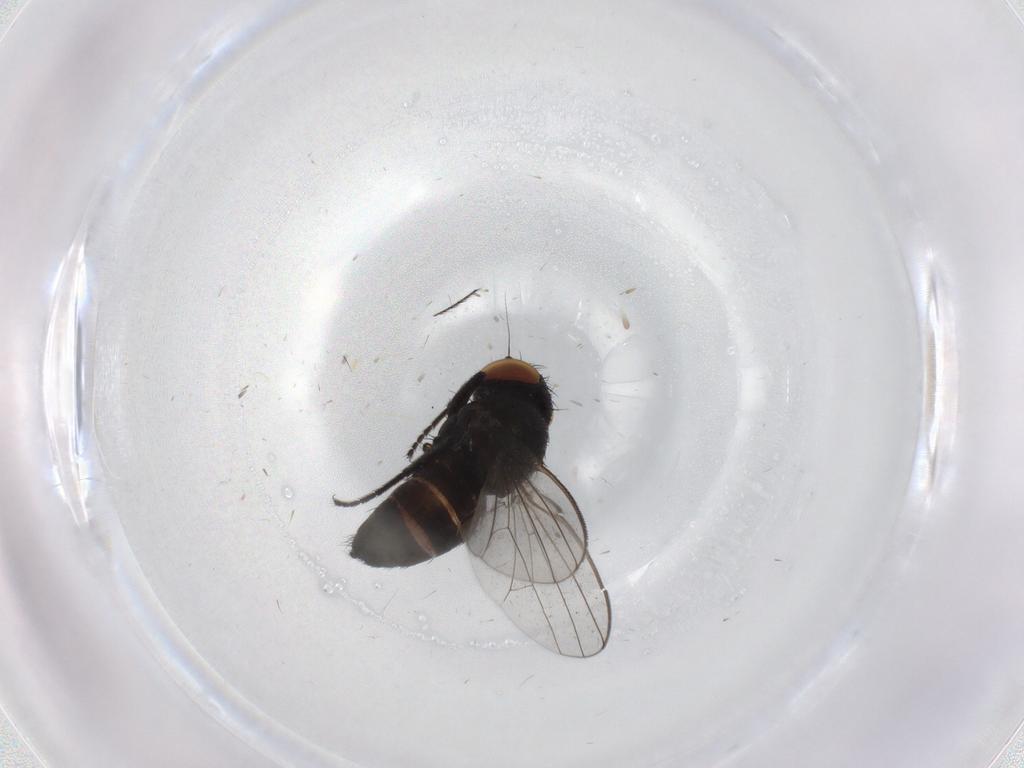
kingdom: Animalia
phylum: Arthropoda
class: Insecta
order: Diptera
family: Milichiidae
